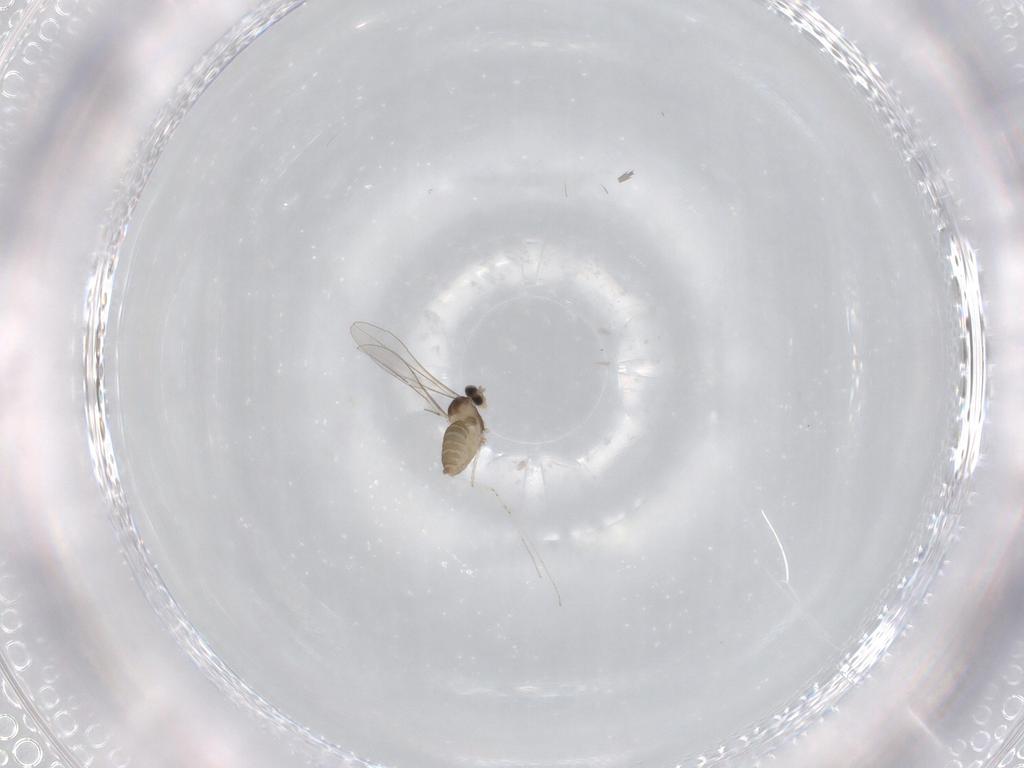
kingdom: Animalia
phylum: Arthropoda
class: Insecta
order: Diptera
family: Cecidomyiidae
